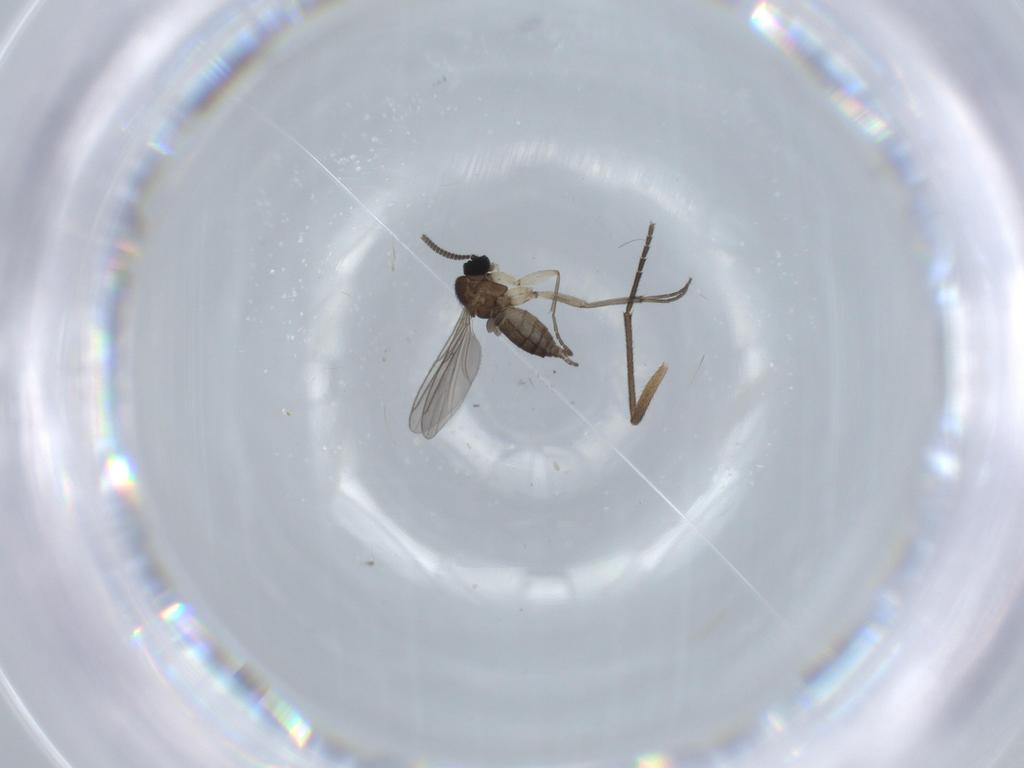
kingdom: Animalia
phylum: Arthropoda
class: Insecta
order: Diptera
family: Sciaridae
